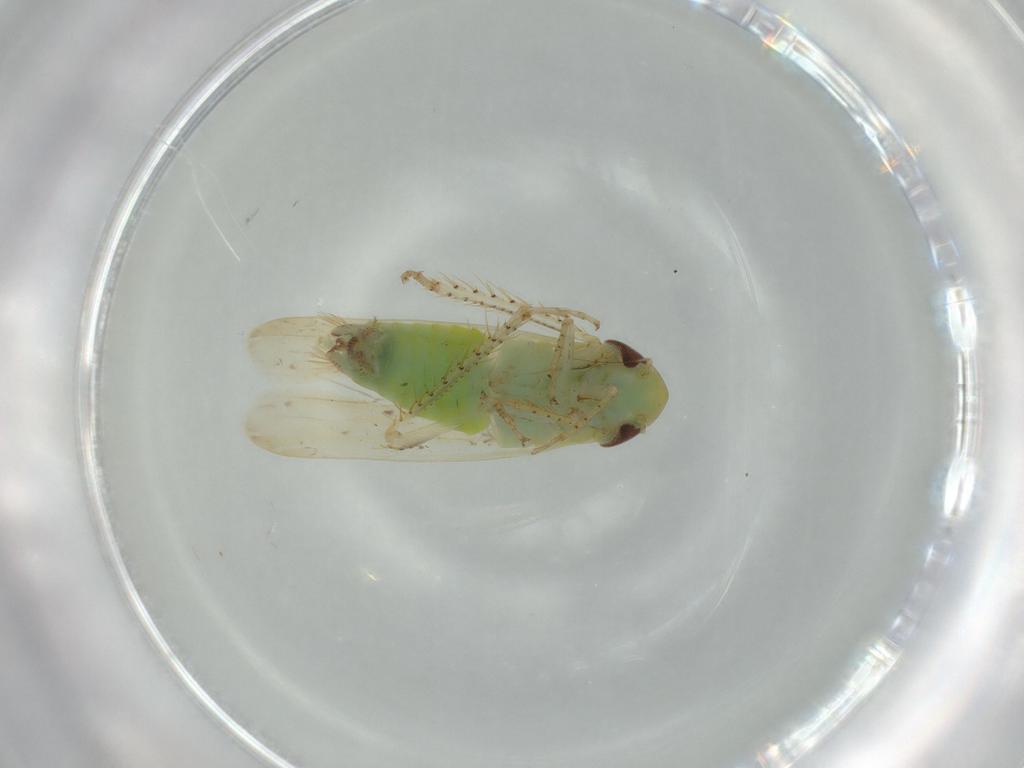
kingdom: Animalia
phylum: Arthropoda
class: Insecta
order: Hemiptera
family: Cicadellidae
